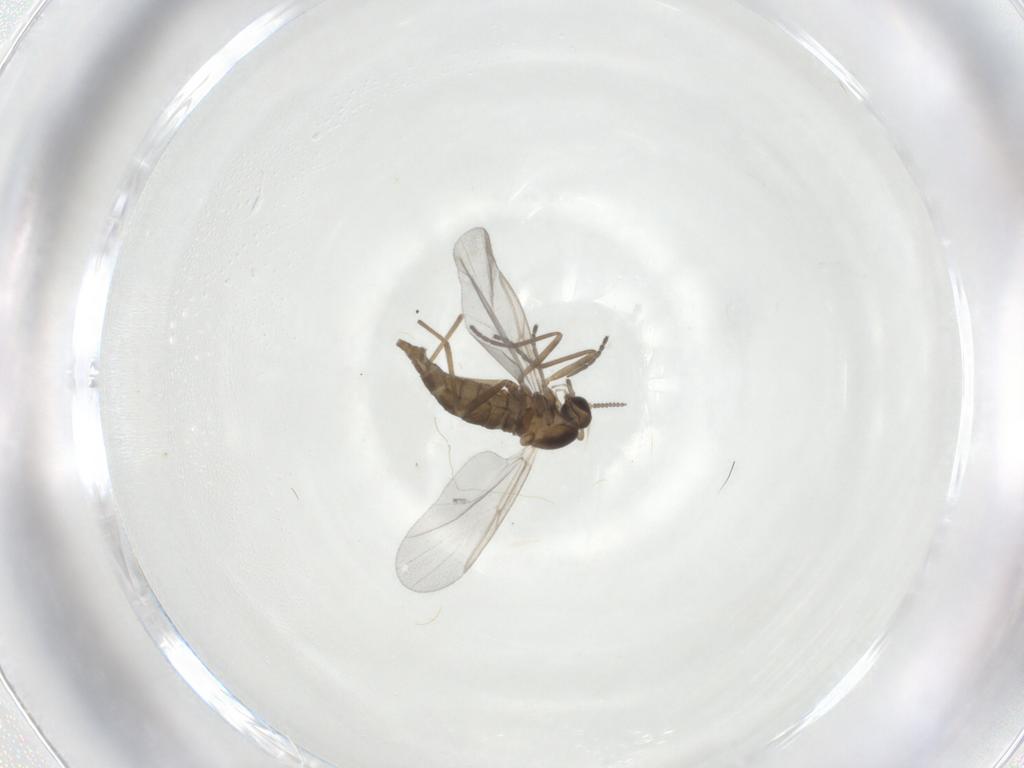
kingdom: Animalia
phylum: Arthropoda
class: Insecta
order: Diptera
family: Cecidomyiidae
